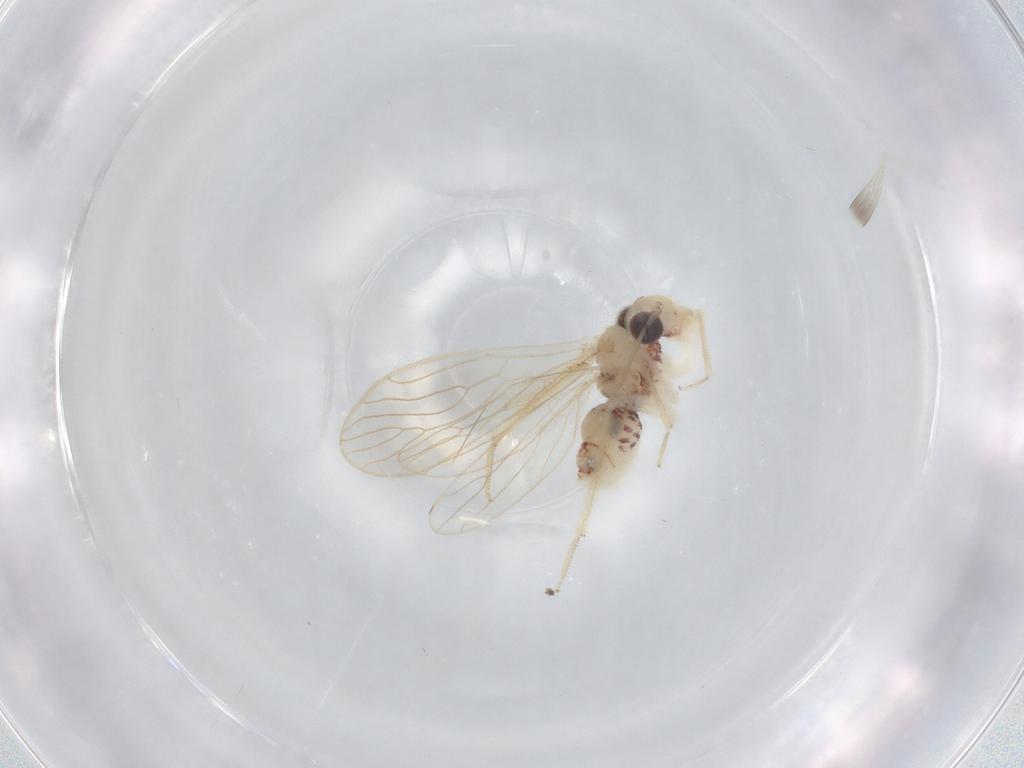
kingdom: Animalia
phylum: Arthropoda
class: Insecta
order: Psocodea
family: Cladiopsocidae
